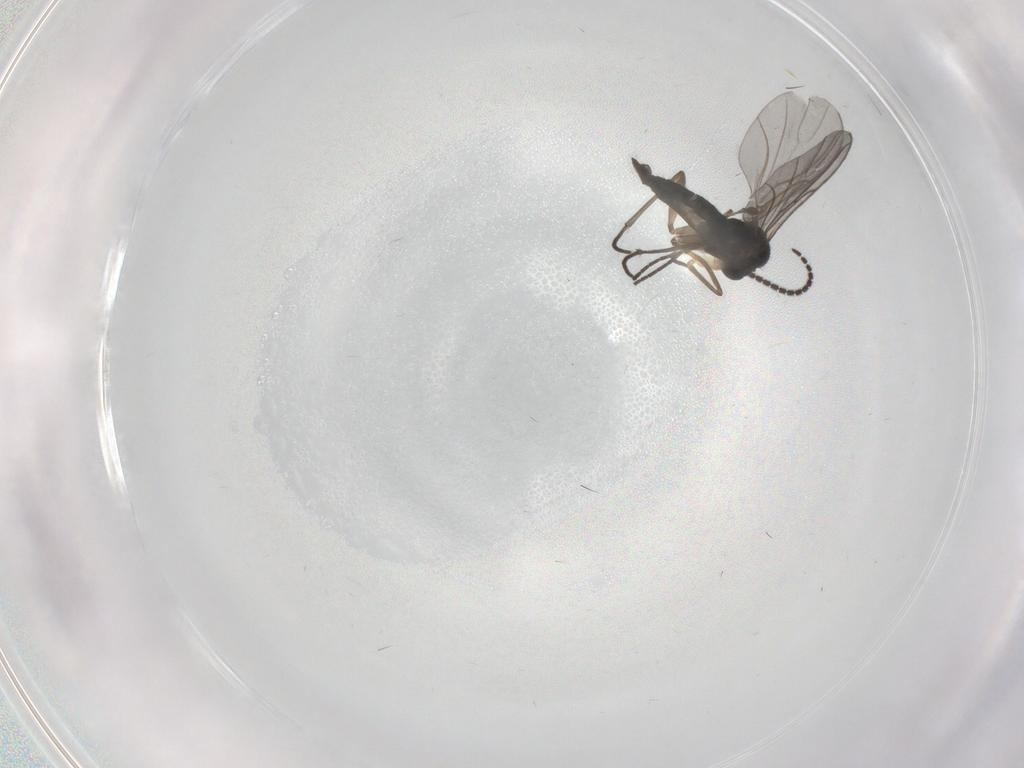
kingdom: Animalia
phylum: Arthropoda
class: Insecta
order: Diptera
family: Sciaridae
